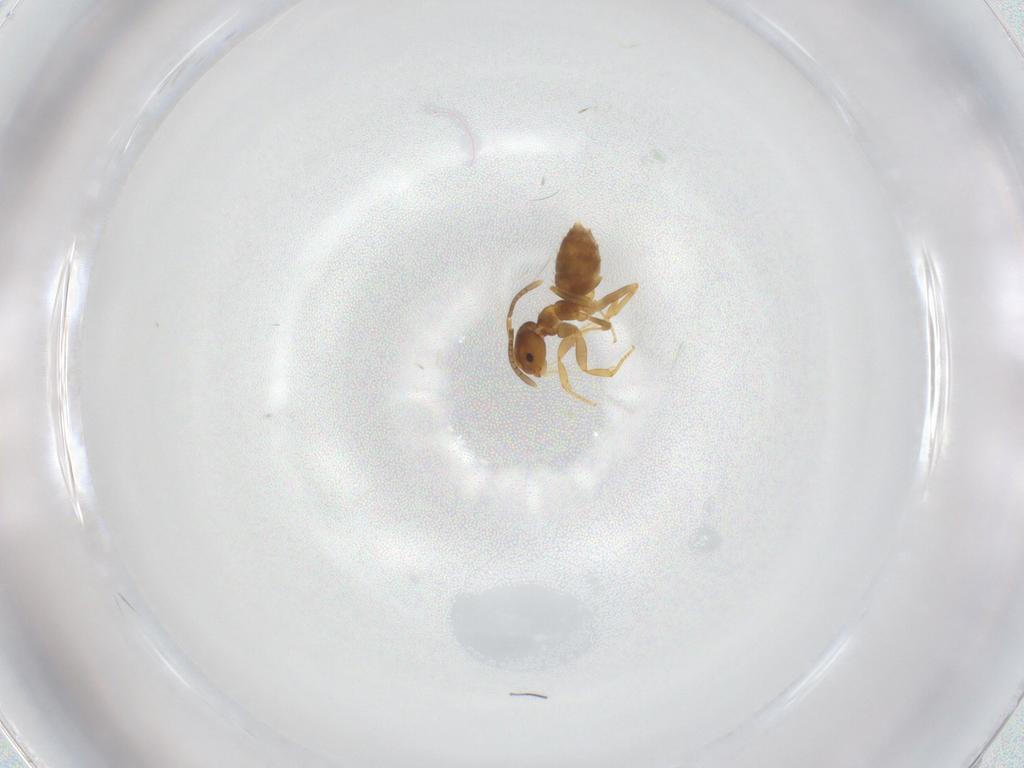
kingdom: Animalia
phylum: Arthropoda
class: Insecta
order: Hymenoptera
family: Formicidae
